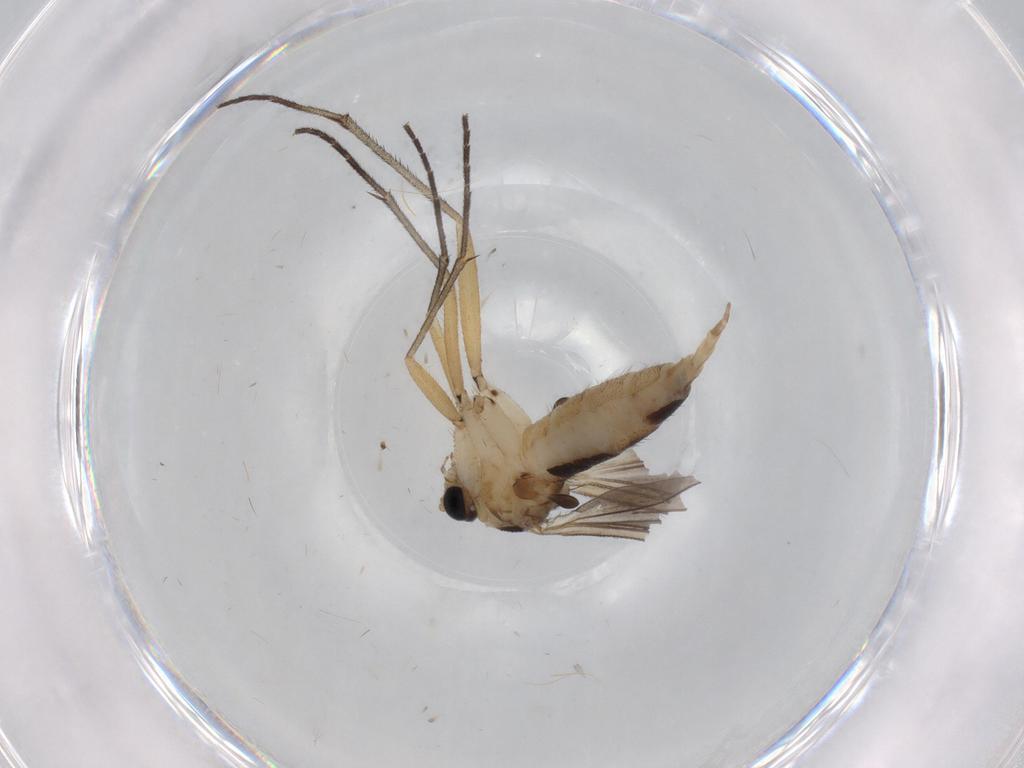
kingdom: Animalia
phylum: Arthropoda
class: Insecta
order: Diptera
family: Sciaridae
